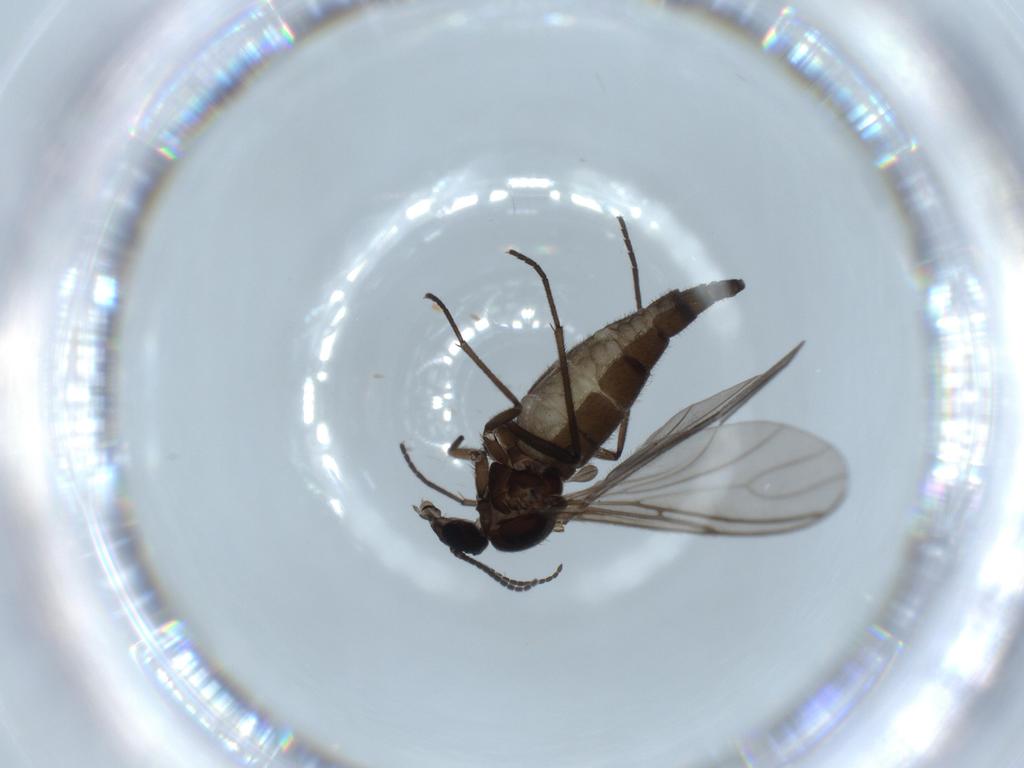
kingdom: Animalia
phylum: Arthropoda
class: Insecta
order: Diptera
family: Sciaridae
